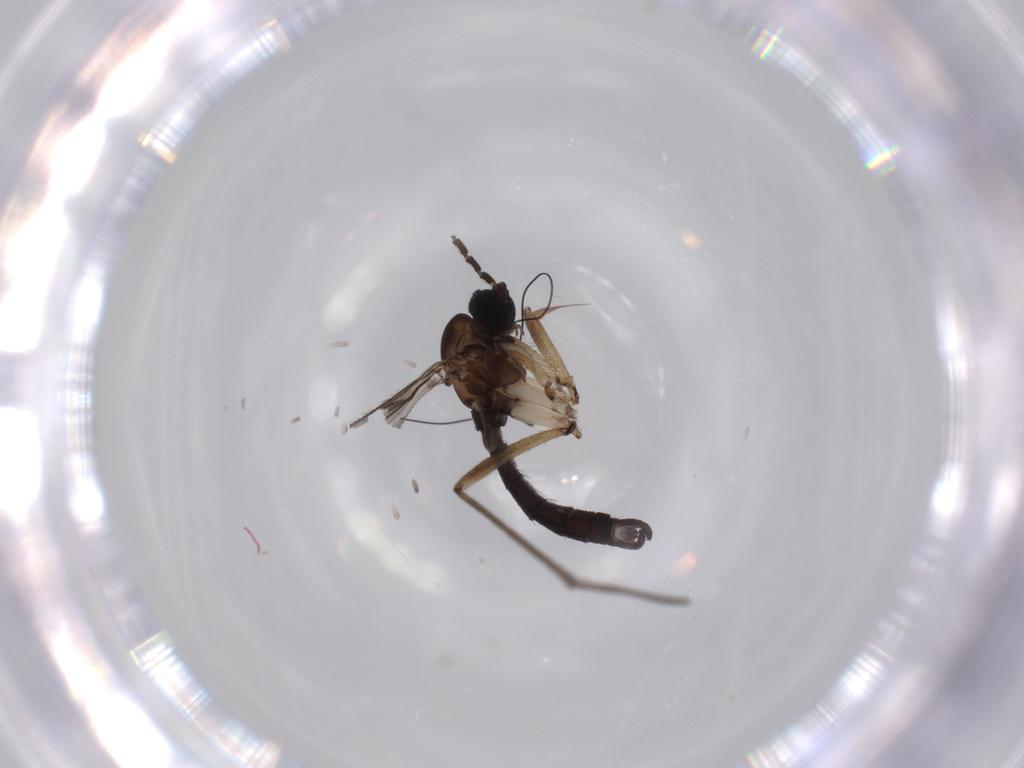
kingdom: Animalia
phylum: Arthropoda
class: Insecta
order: Diptera
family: Sciaridae
